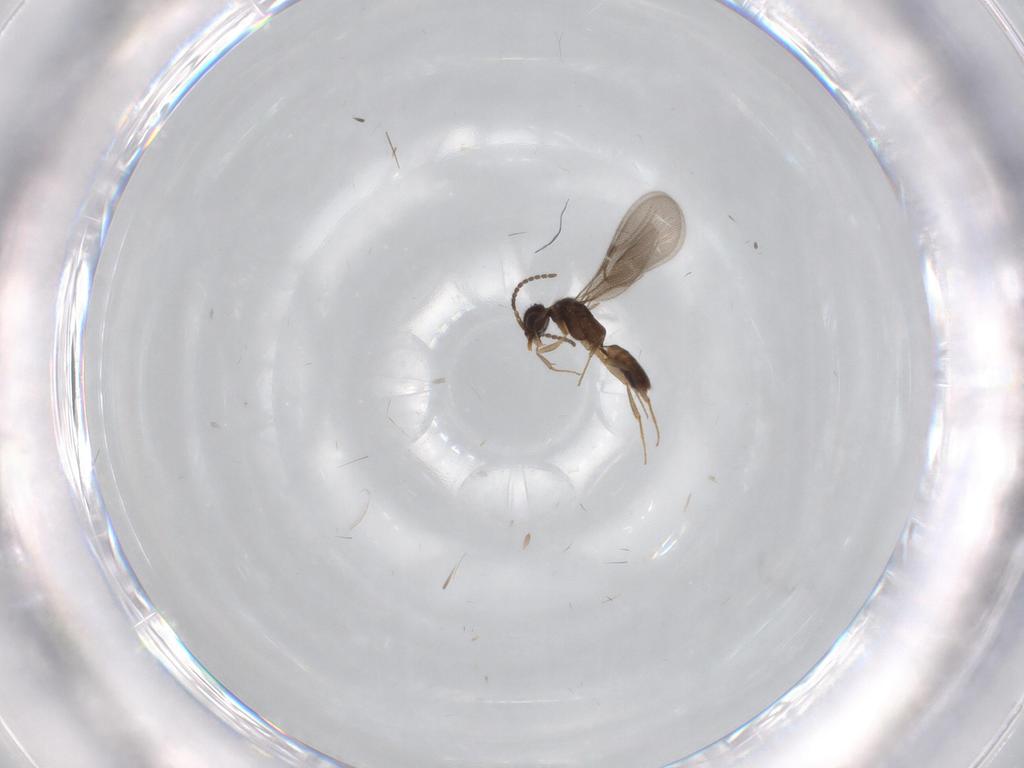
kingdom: Animalia
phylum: Arthropoda
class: Insecta
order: Hymenoptera
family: Bethylidae
